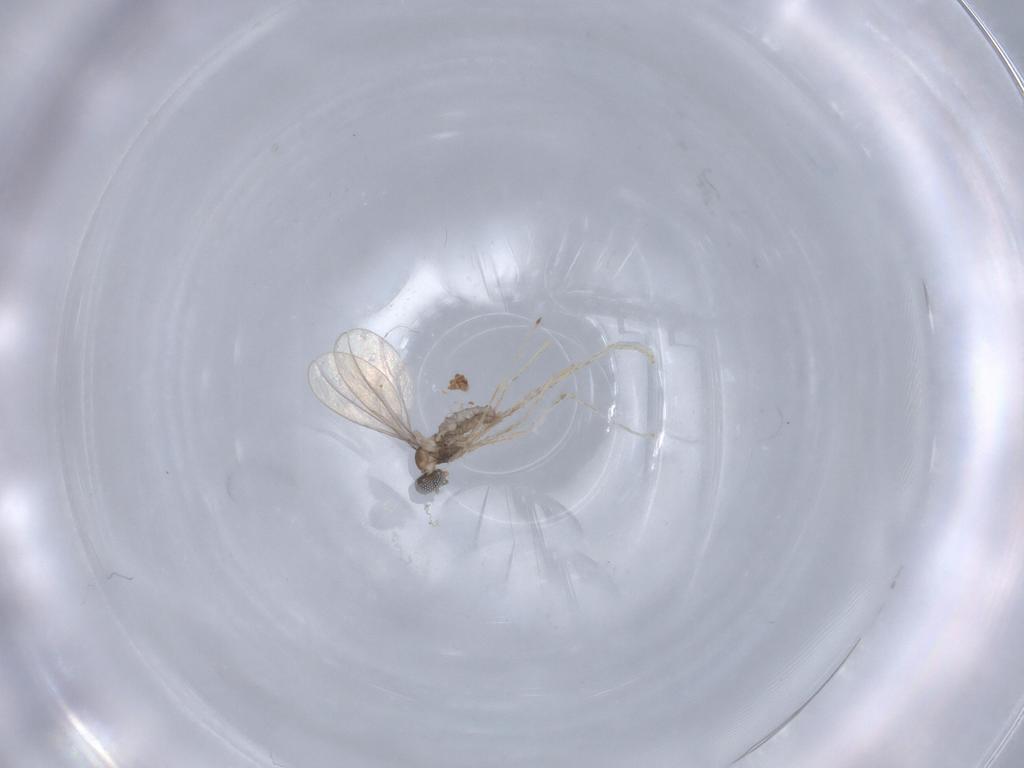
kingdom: Animalia
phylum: Arthropoda
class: Insecta
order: Diptera
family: Cecidomyiidae
